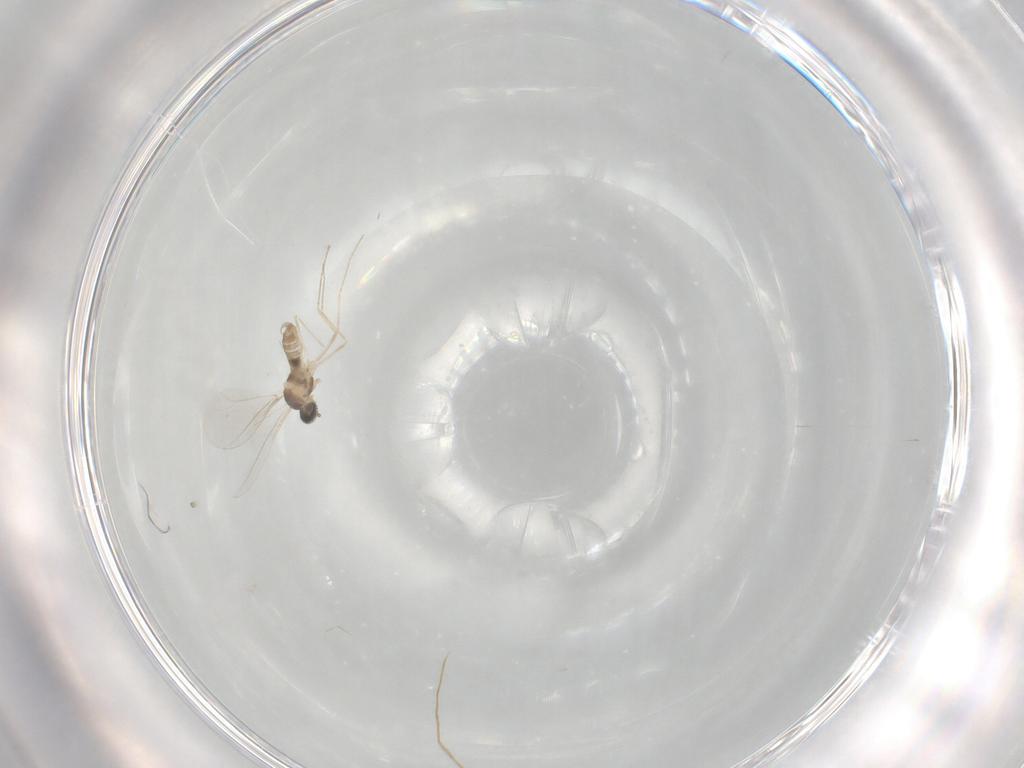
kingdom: Animalia
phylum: Arthropoda
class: Insecta
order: Diptera
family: Cecidomyiidae
